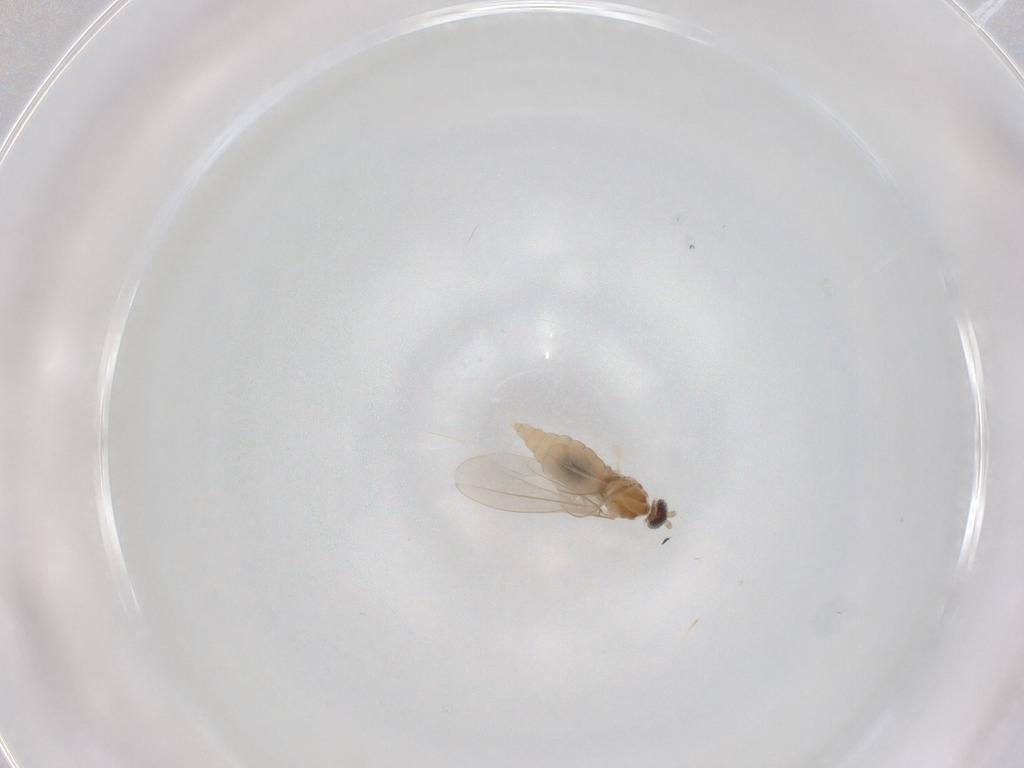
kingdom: Animalia
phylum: Arthropoda
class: Insecta
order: Diptera
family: Cecidomyiidae
